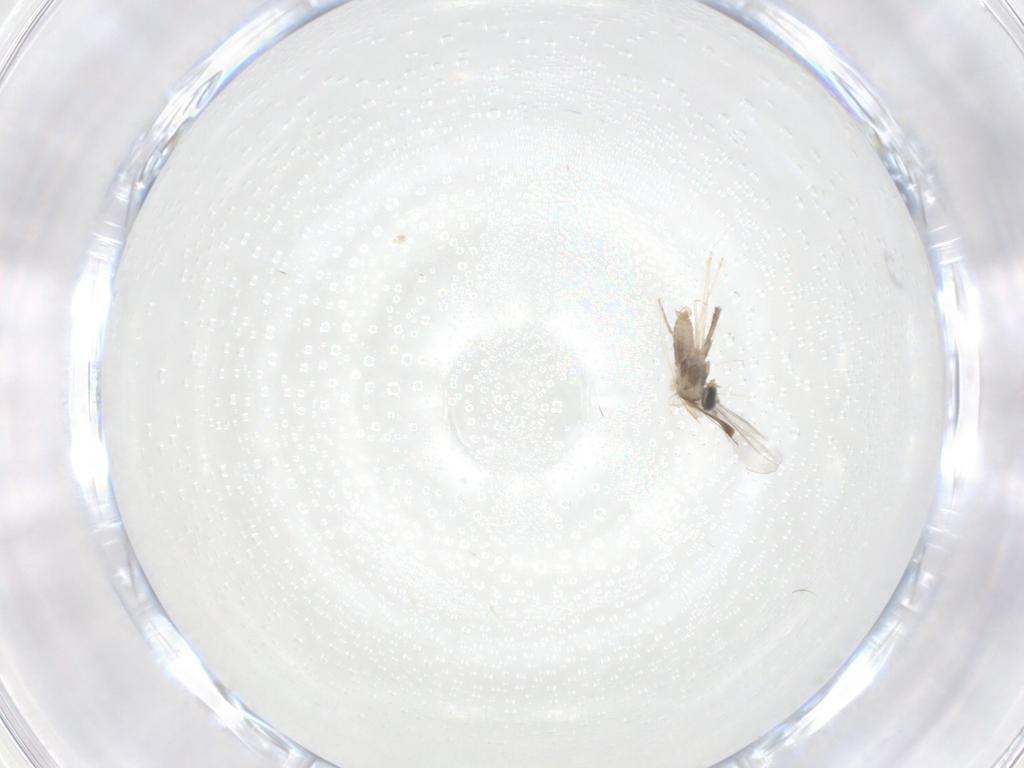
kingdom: Animalia
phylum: Arthropoda
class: Insecta
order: Diptera
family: Cecidomyiidae
